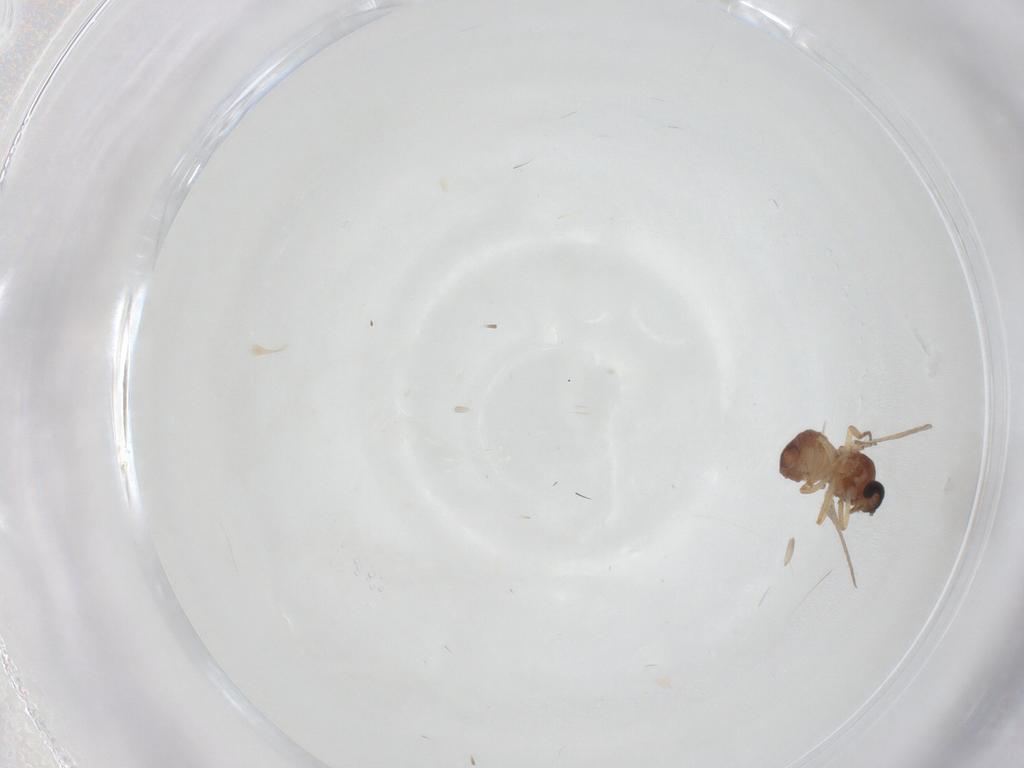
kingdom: Animalia
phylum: Arthropoda
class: Insecta
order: Diptera
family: Ceratopogonidae
